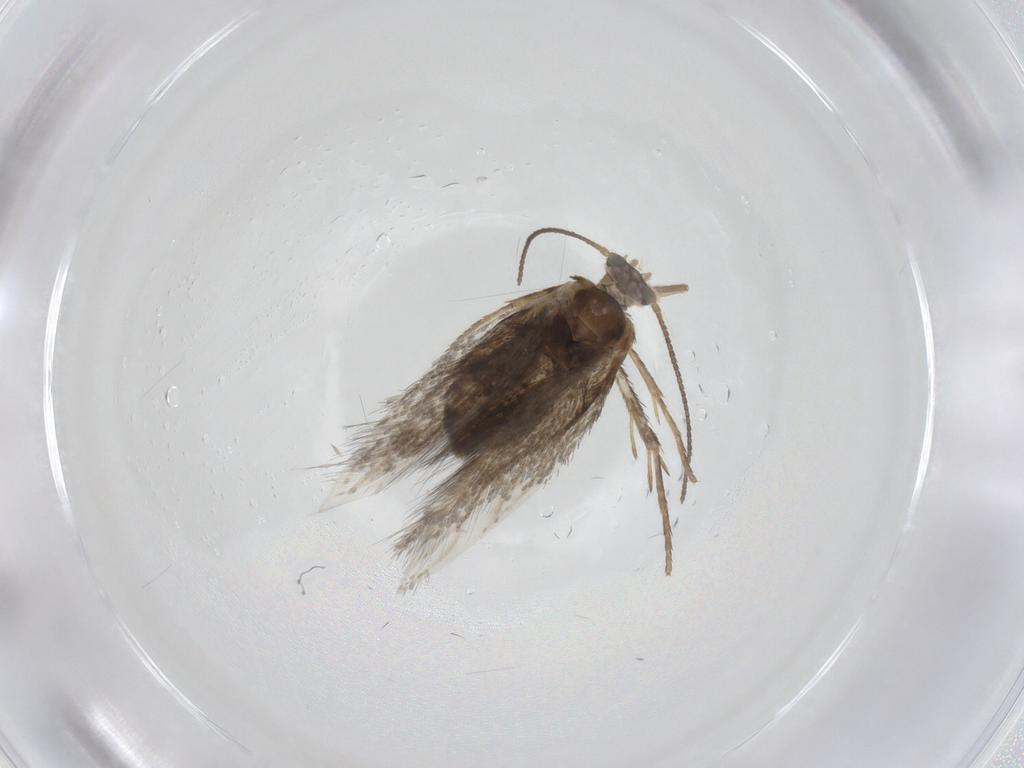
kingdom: Animalia
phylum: Arthropoda
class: Insecta
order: Lepidoptera
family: Nepticulidae
